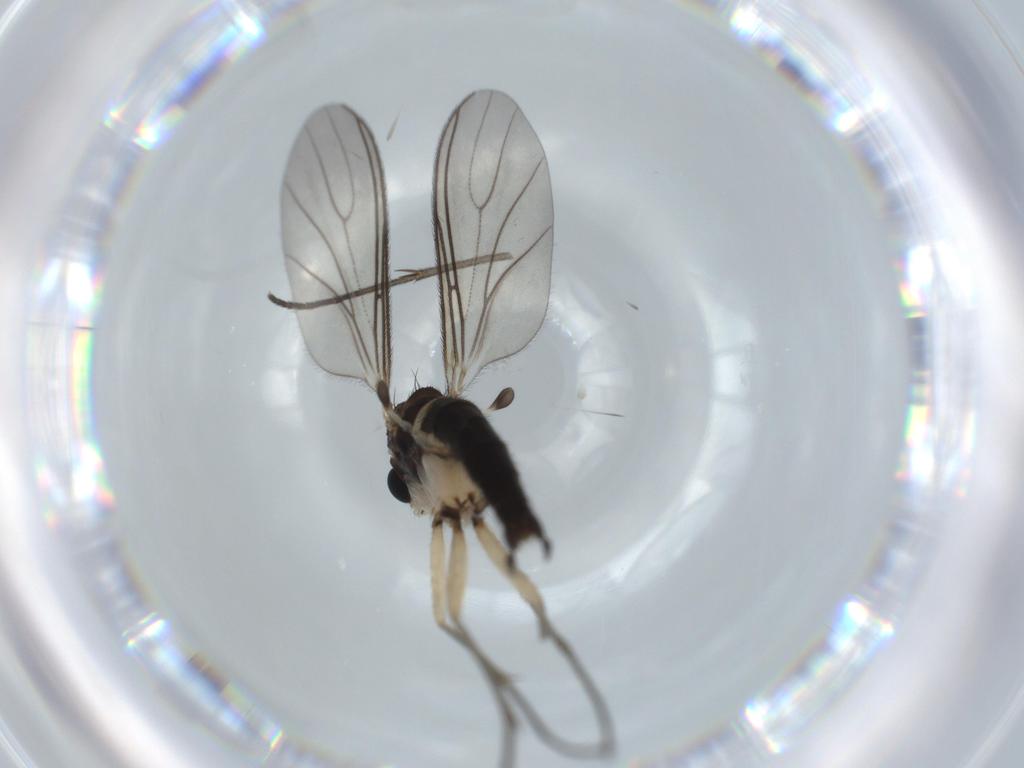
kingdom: Animalia
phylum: Arthropoda
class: Insecta
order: Diptera
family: Sciaridae
